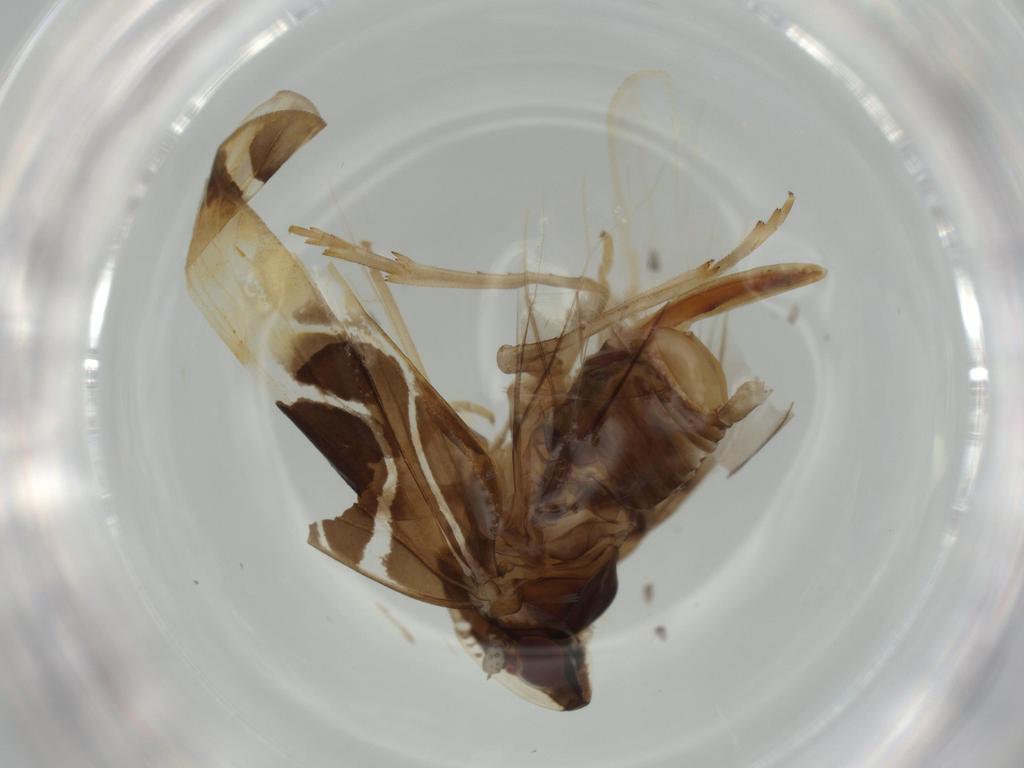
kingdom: Animalia
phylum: Arthropoda
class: Insecta
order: Hemiptera
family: Cixiidae
